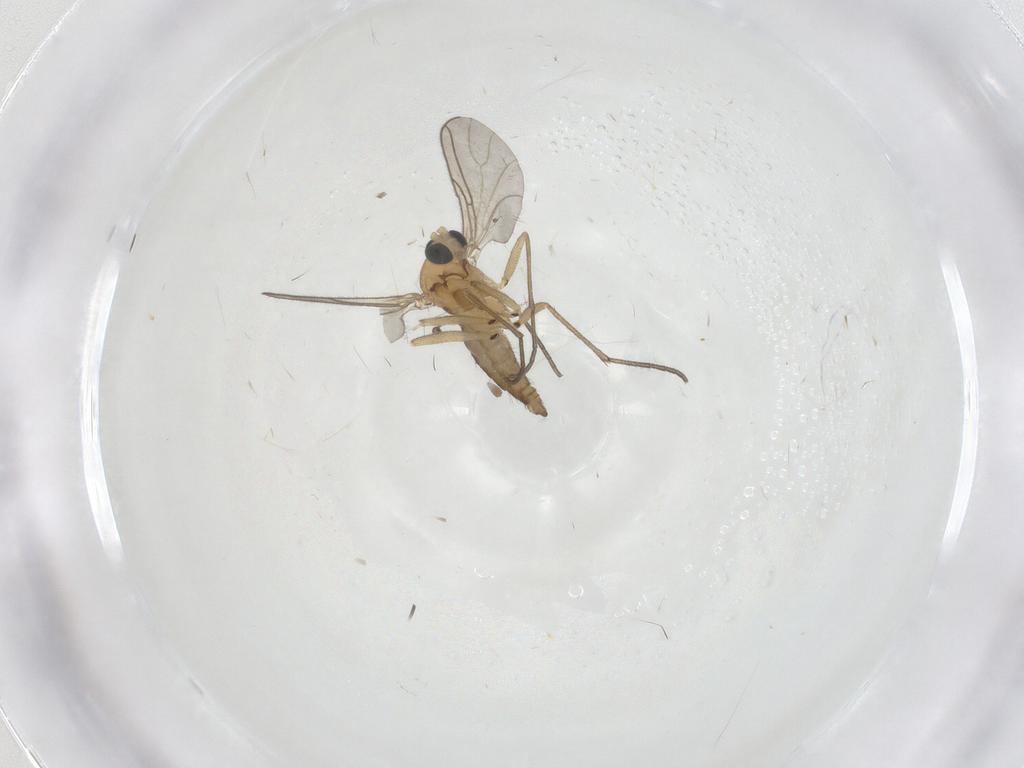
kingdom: Animalia
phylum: Arthropoda
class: Insecta
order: Diptera
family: Sciaridae
